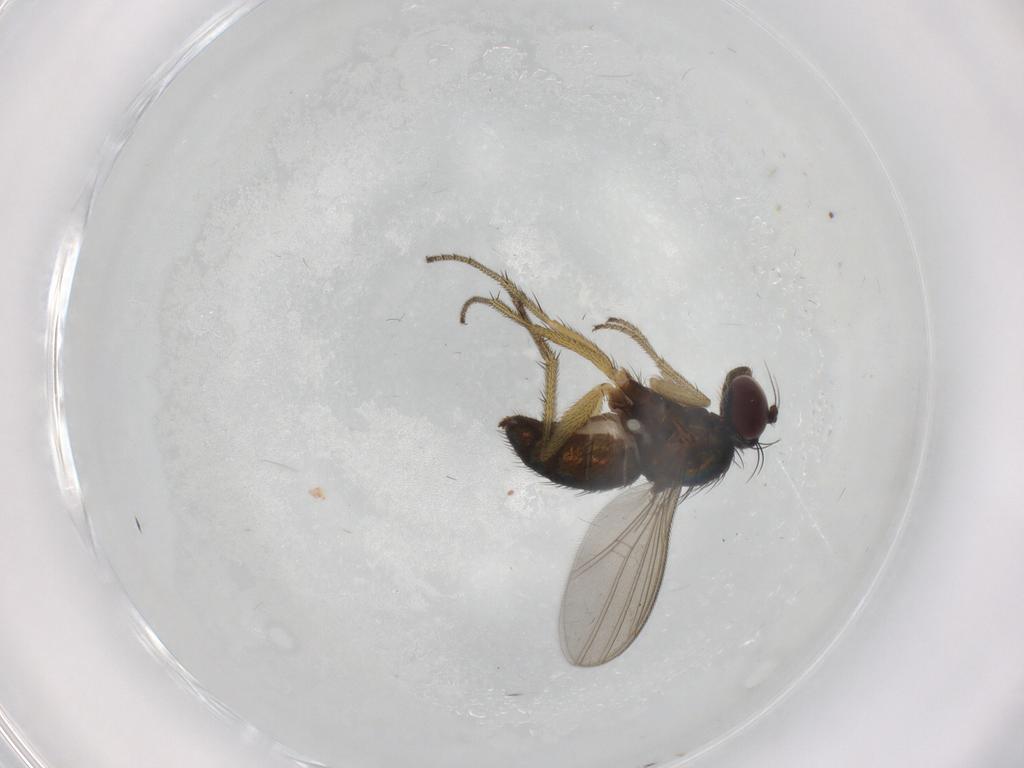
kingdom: Animalia
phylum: Arthropoda
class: Insecta
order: Diptera
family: Dolichopodidae
